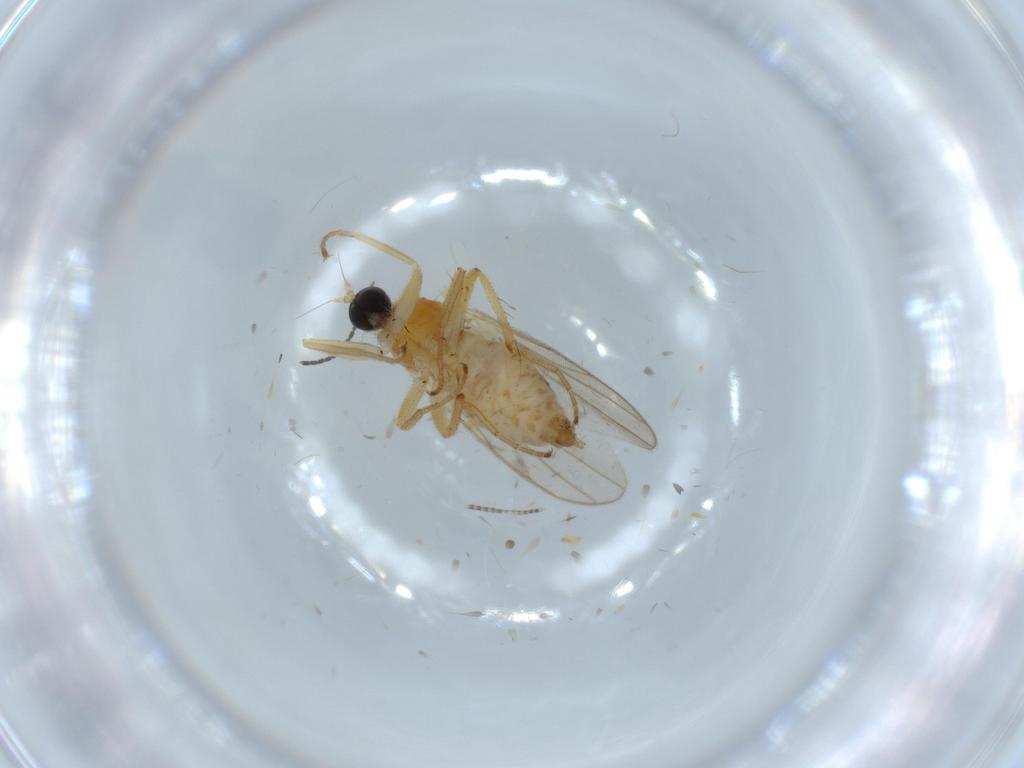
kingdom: Animalia
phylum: Arthropoda
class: Insecta
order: Diptera
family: Hybotidae
